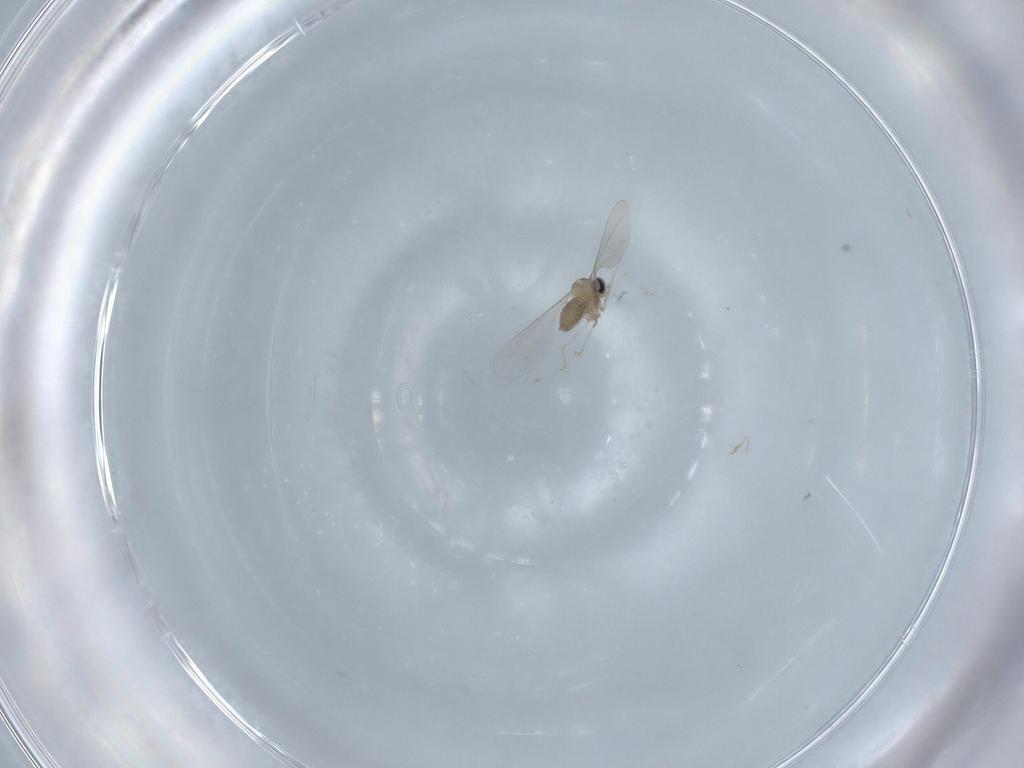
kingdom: Animalia
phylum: Arthropoda
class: Insecta
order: Diptera
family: Cecidomyiidae
